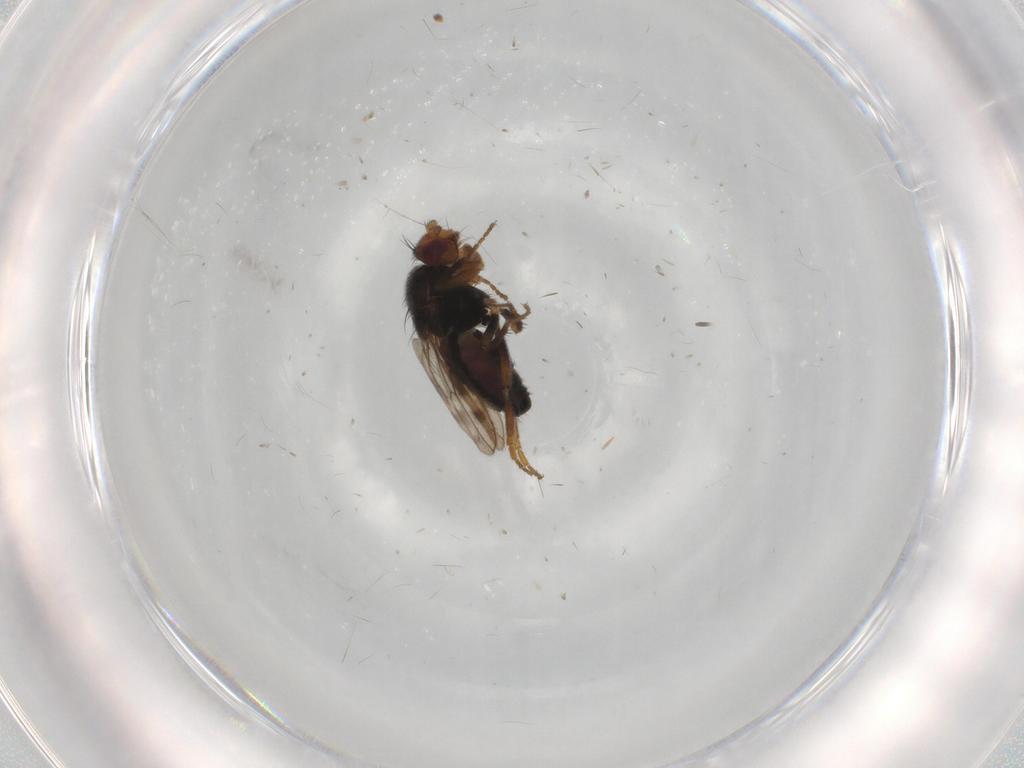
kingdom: Animalia
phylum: Arthropoda
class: Insecta
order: Diptera
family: Sphaeroceridae
